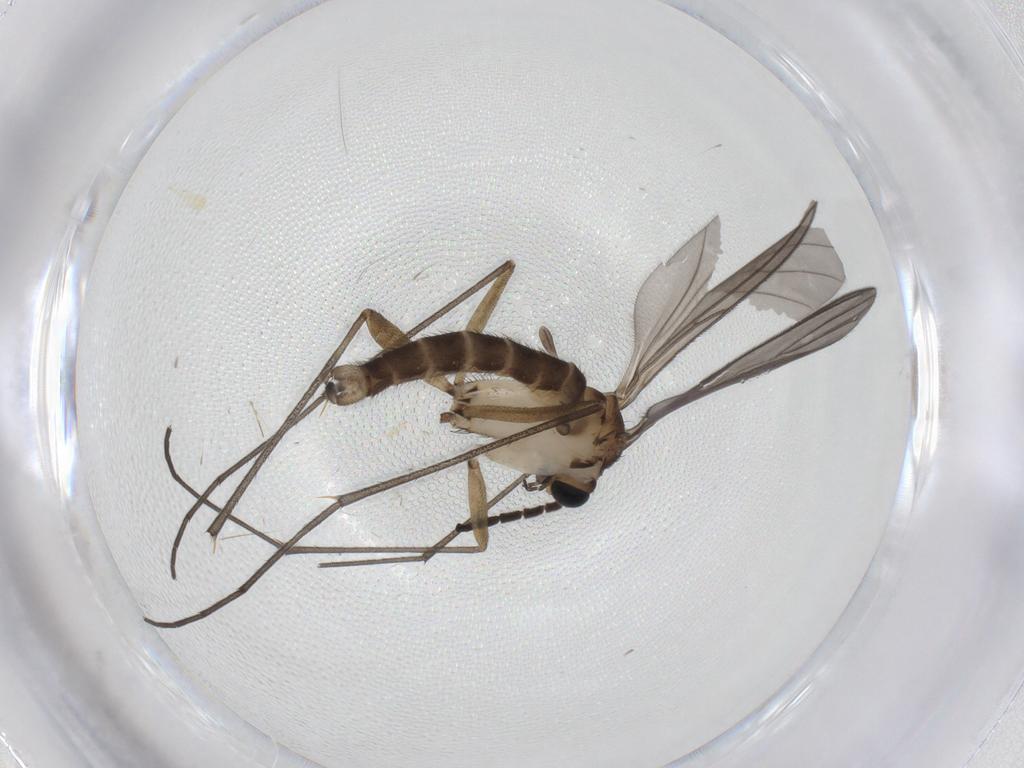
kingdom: Animalia
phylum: Arthropoda
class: Insecta
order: Diptera
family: Sciaridae
